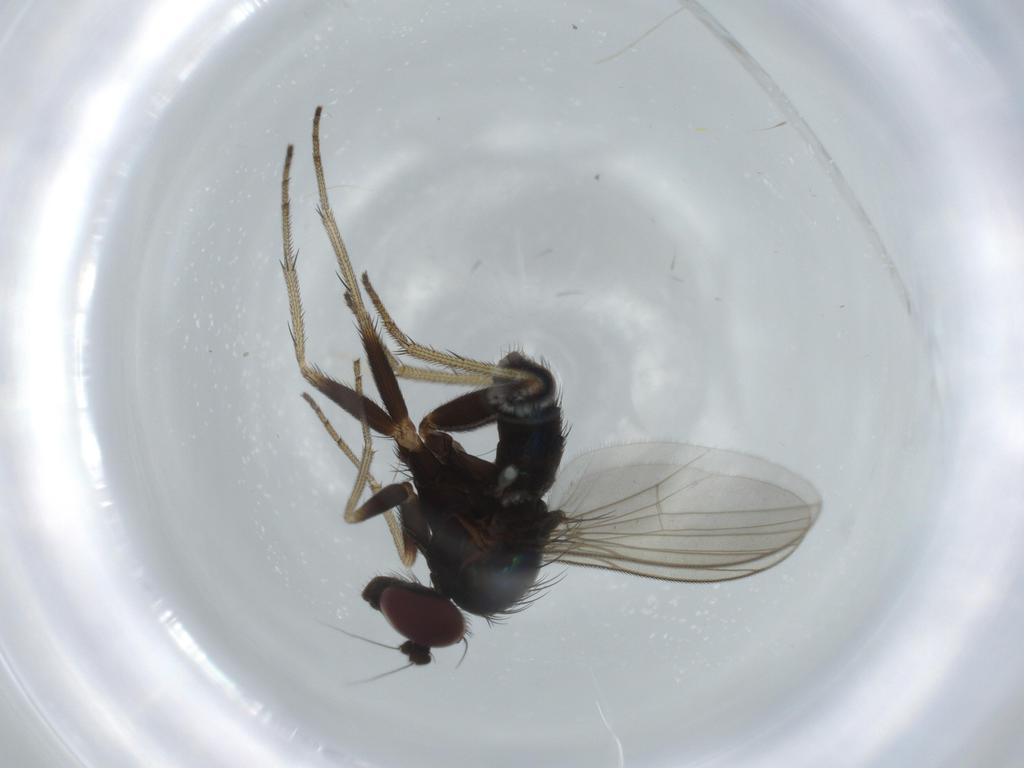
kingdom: Animalia
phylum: Arthropoda
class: Insecta
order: Diptera
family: Dolichopodidae
